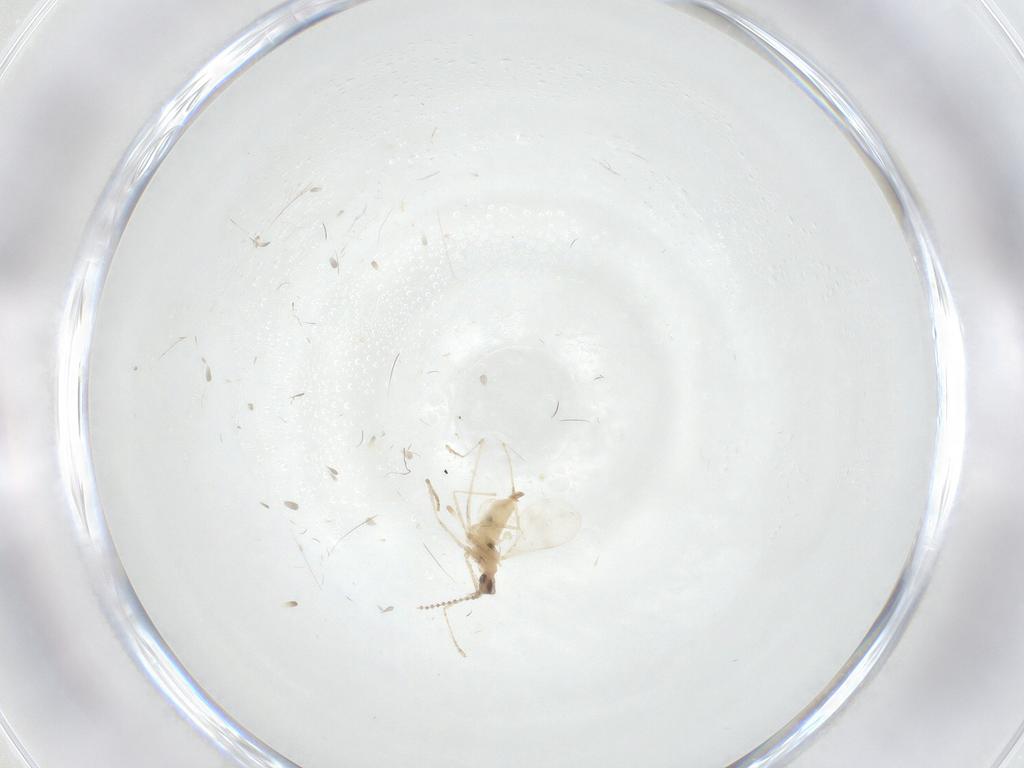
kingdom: Animalia
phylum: Arthropoda
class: Insecta
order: Diptera
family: Cecidomyiidae
